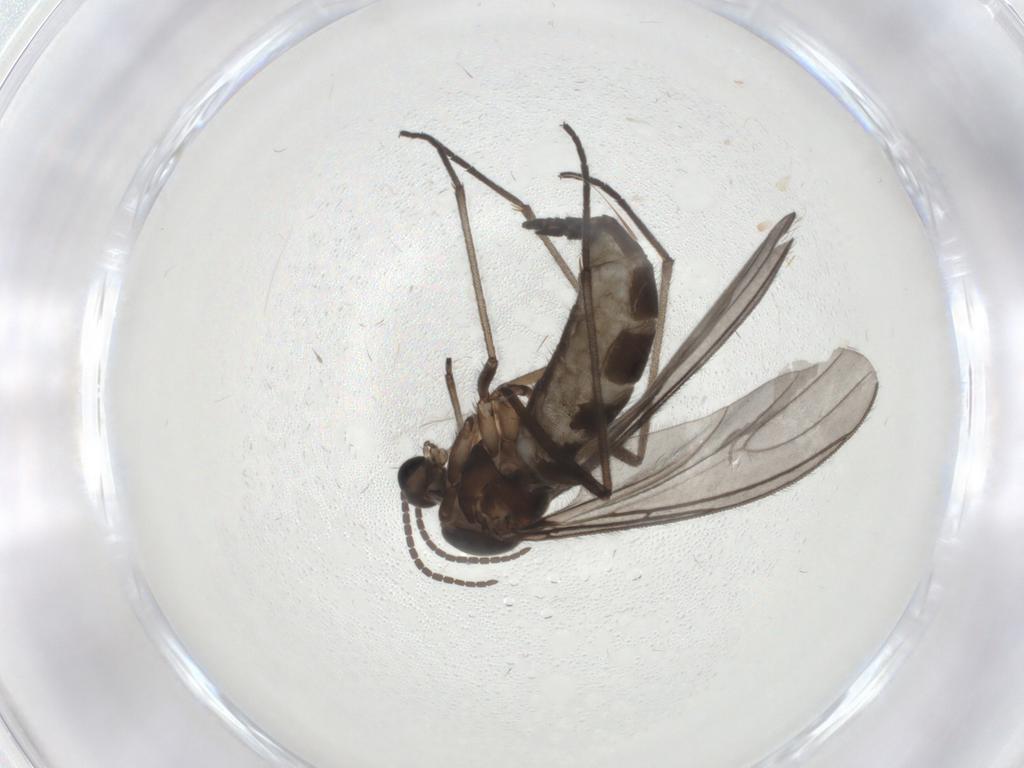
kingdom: Animalia
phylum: Arthropoda
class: Insecta
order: Diptera
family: Sciaridae
